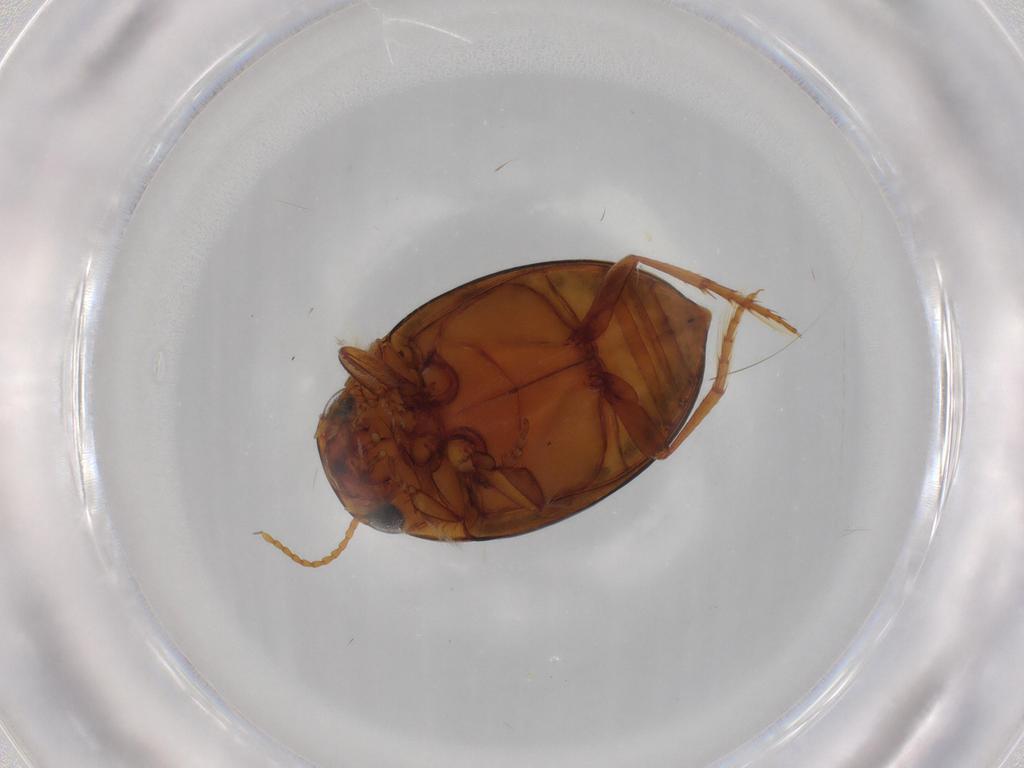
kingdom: Animalia
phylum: Arthropoda
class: Insecta
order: Coleoptera
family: Dytiscidae
